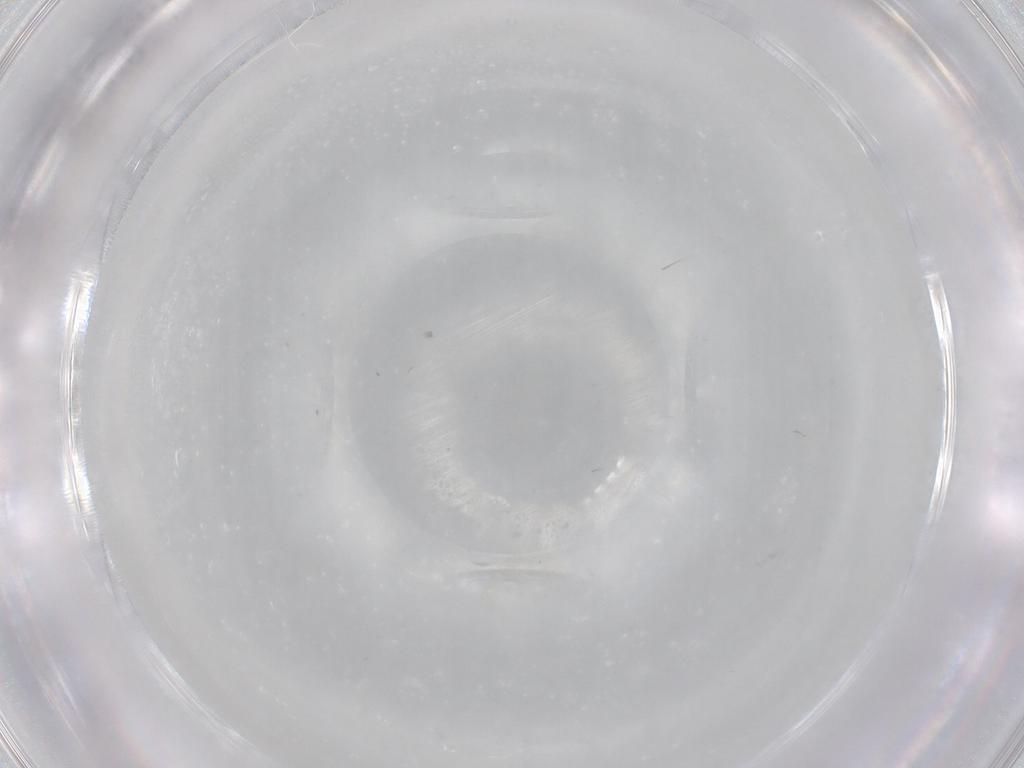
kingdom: Animalia
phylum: Arthropoda
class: Insecta
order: Hemiptera
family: Aleyrodidae
